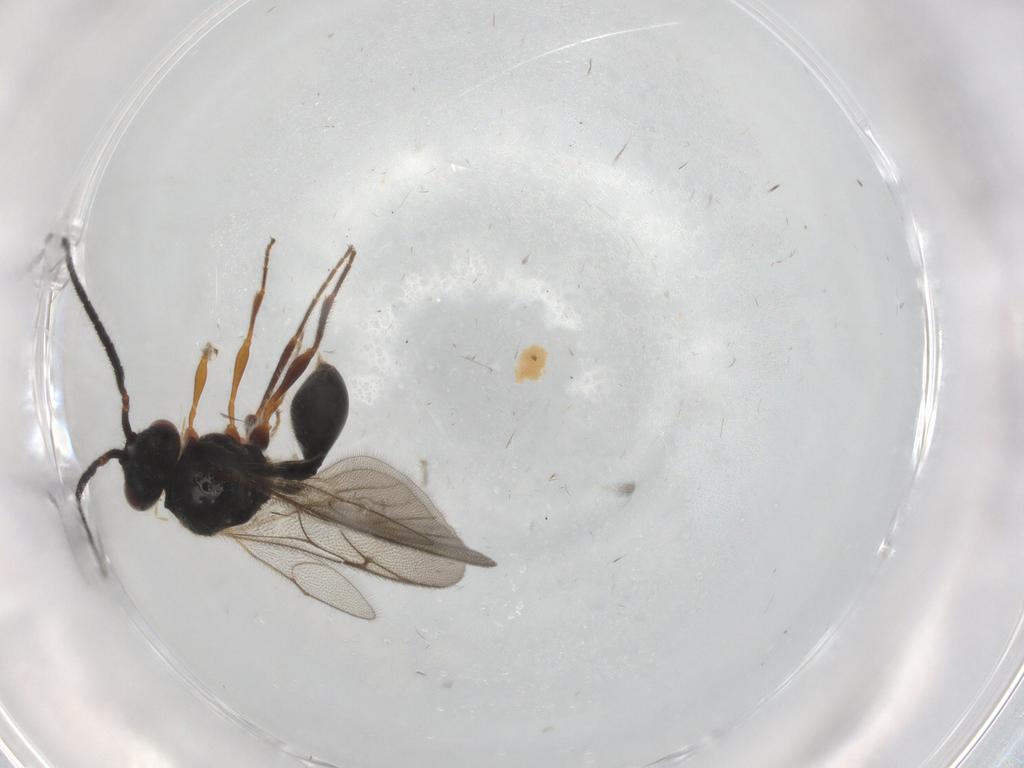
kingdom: Animalia
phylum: Arthropoda
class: Insecta
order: Hymenoptera
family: Diapriidae
